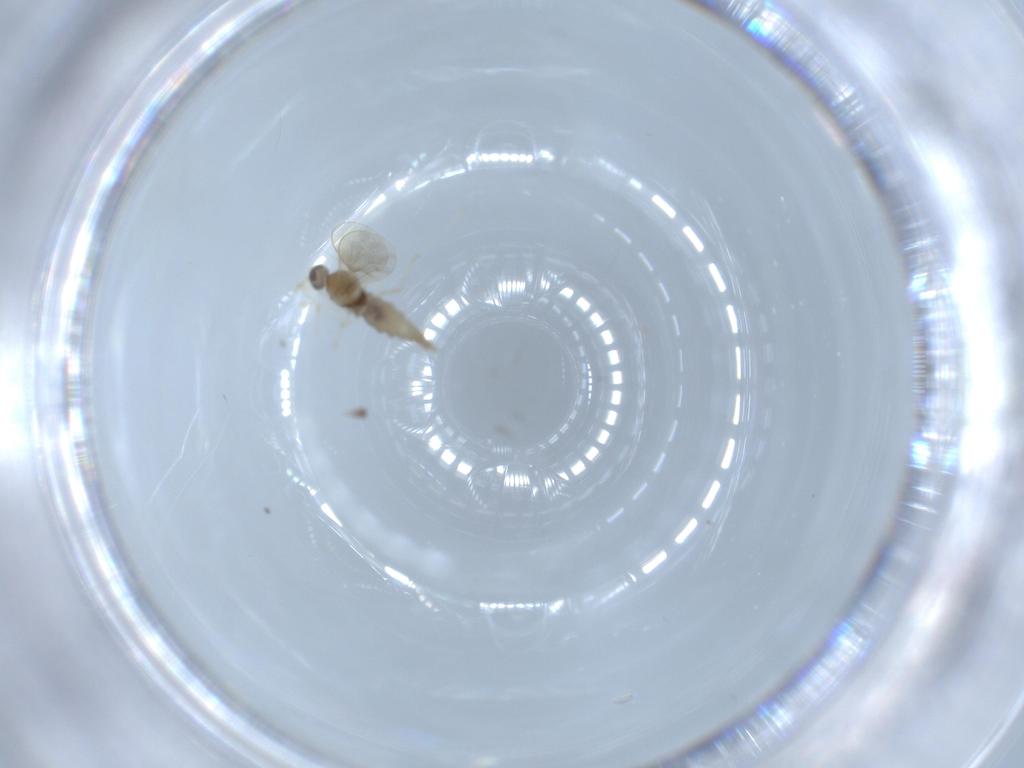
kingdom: Animalia
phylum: Arthropoda
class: Insecta
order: Diptera
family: Cecidomyiidae
